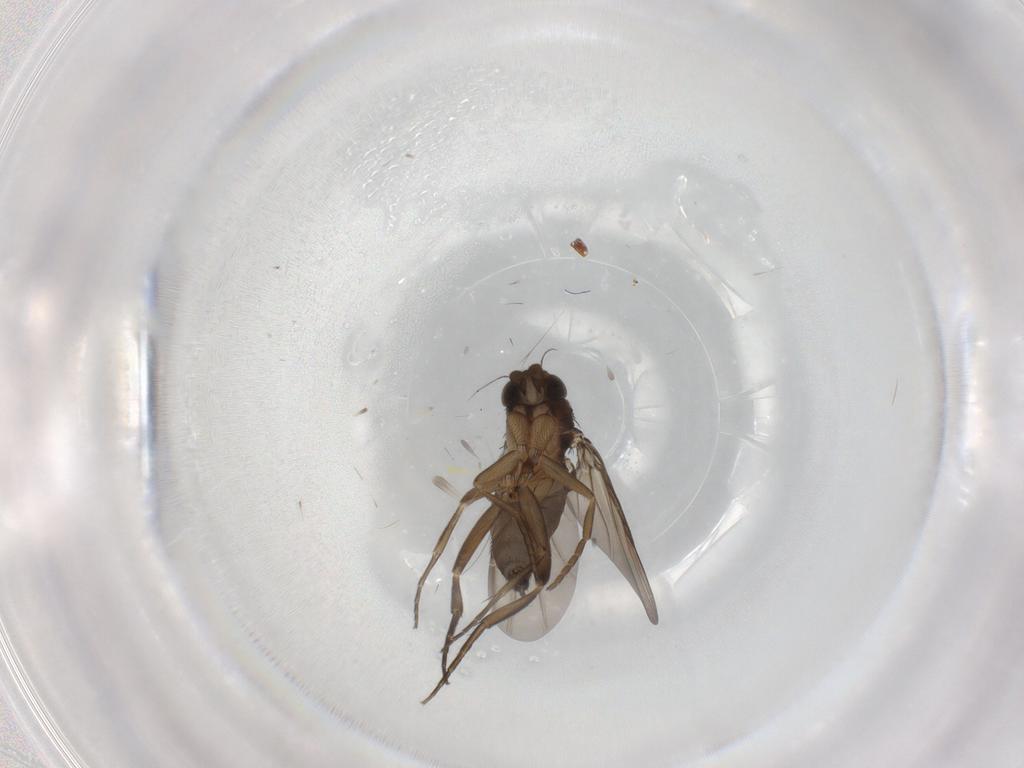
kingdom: Animalia
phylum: Arthropoda
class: Insecta
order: Diptera
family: Phoridae
